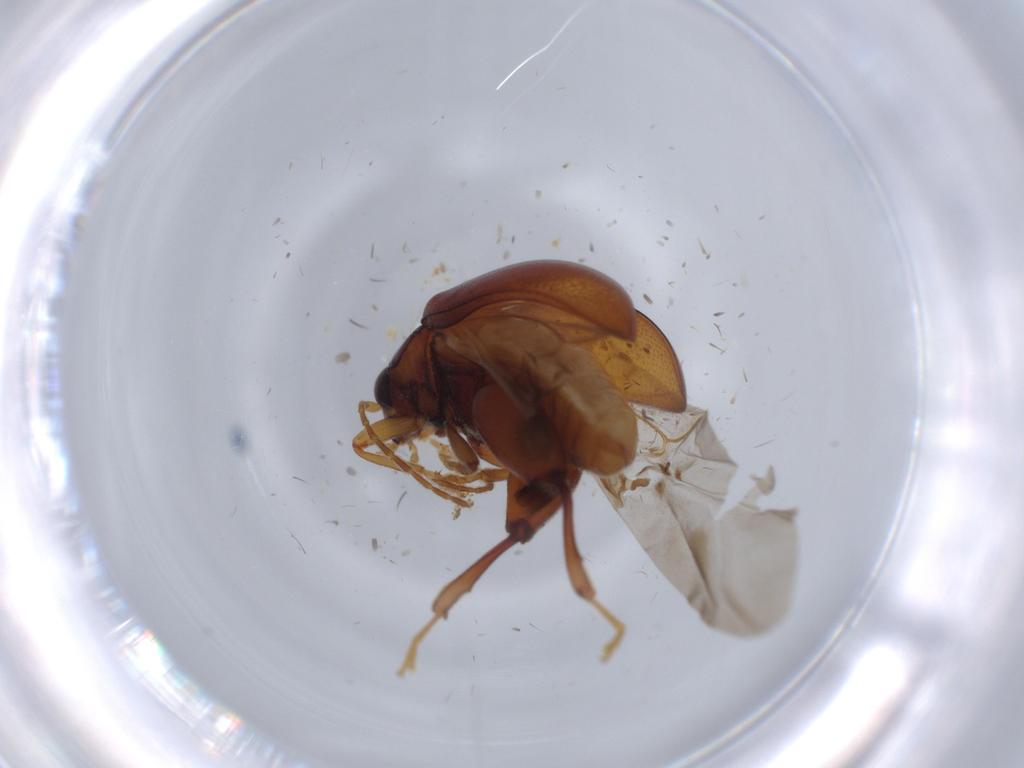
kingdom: Animalia
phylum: Arthropoda
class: Insecta
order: Coleoptera
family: Chrysomelidae
